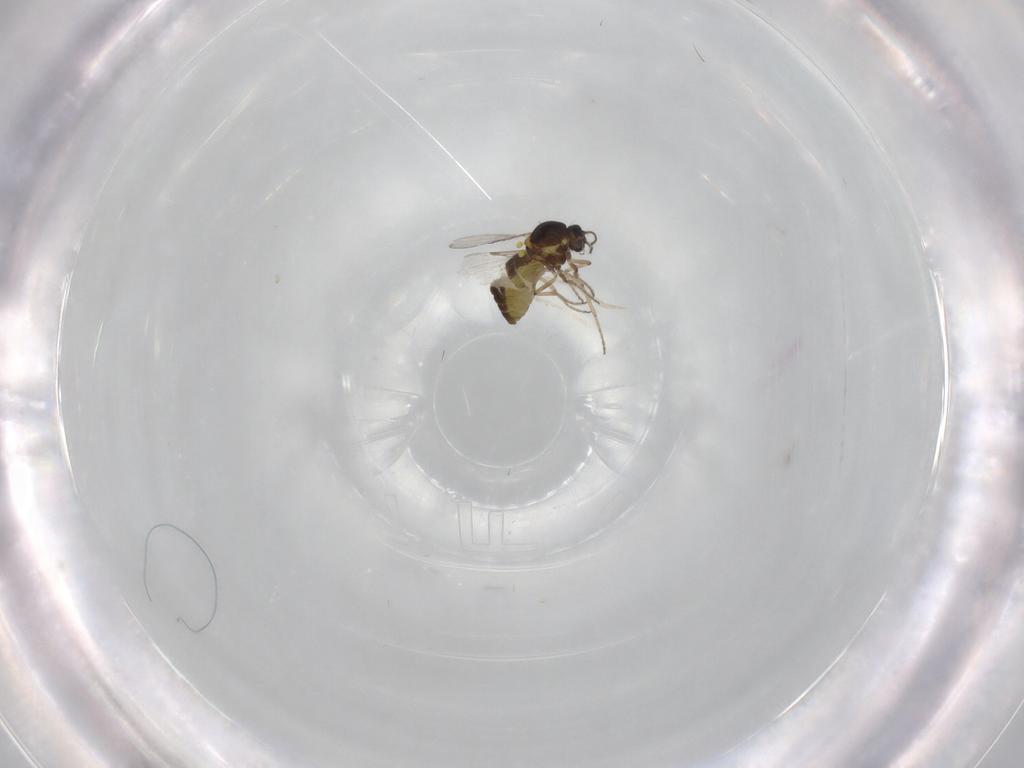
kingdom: Animalia
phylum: Arthropoda
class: Insecta
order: Diptera
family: Ceratopogonidae
